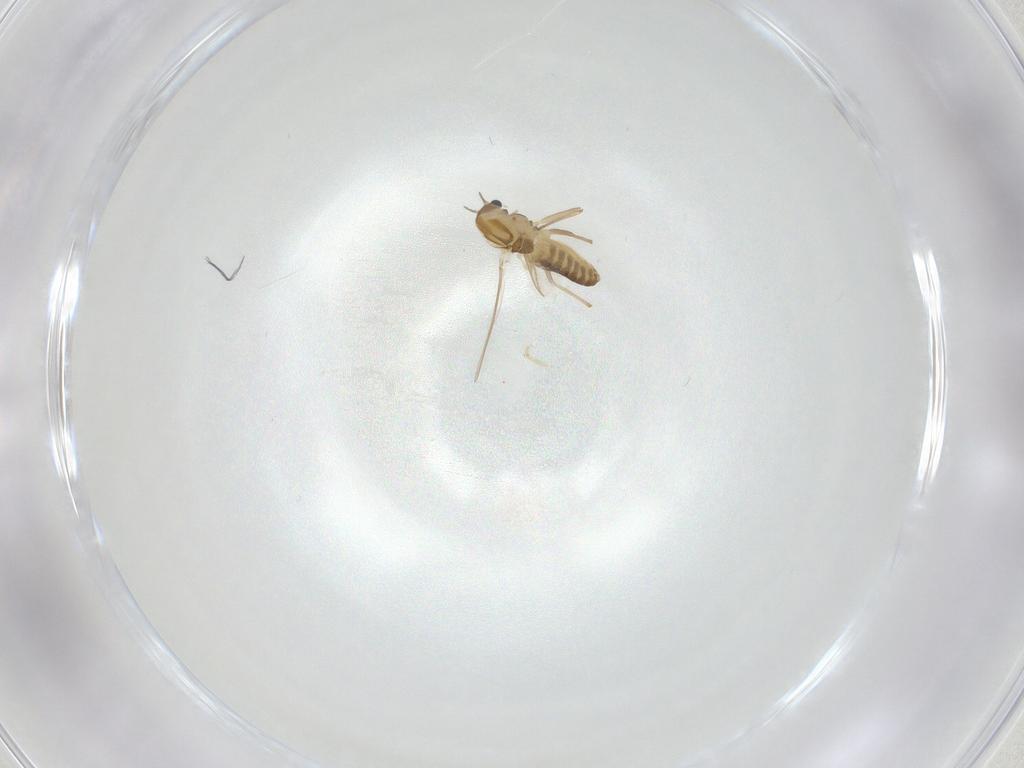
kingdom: Animalia
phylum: Arthropoda
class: Insecta
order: Diptera
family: Chironomidae
